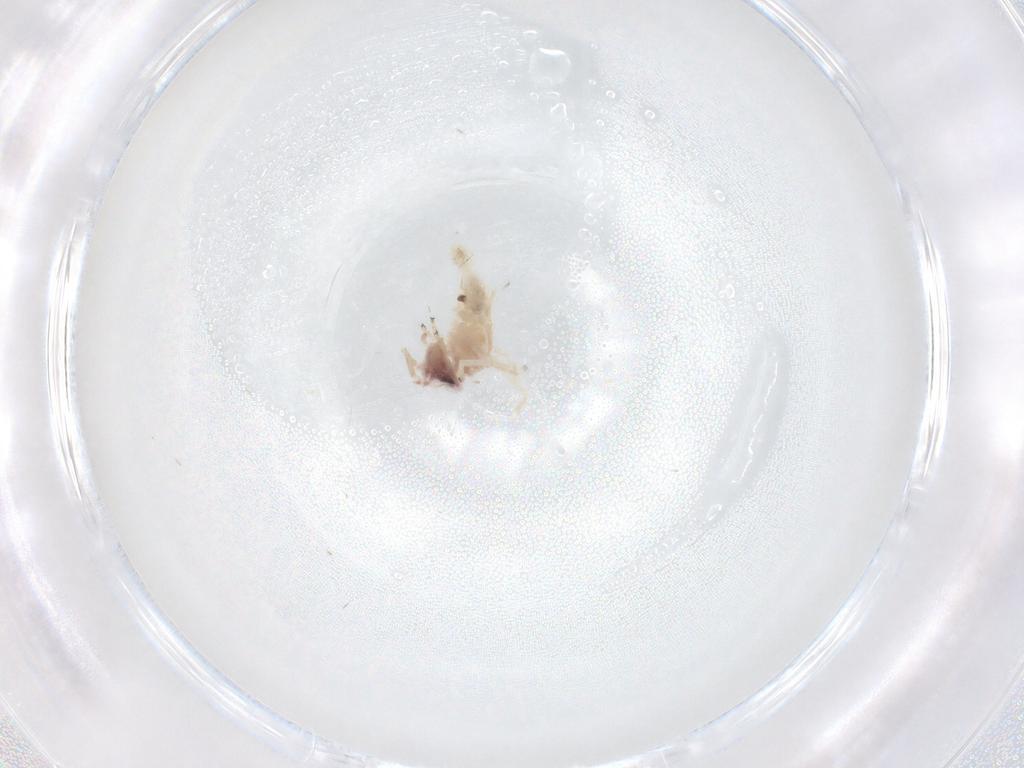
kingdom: Animalia
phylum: Arthropoda
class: Insecta
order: Psocodea
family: Caeciliusidae
